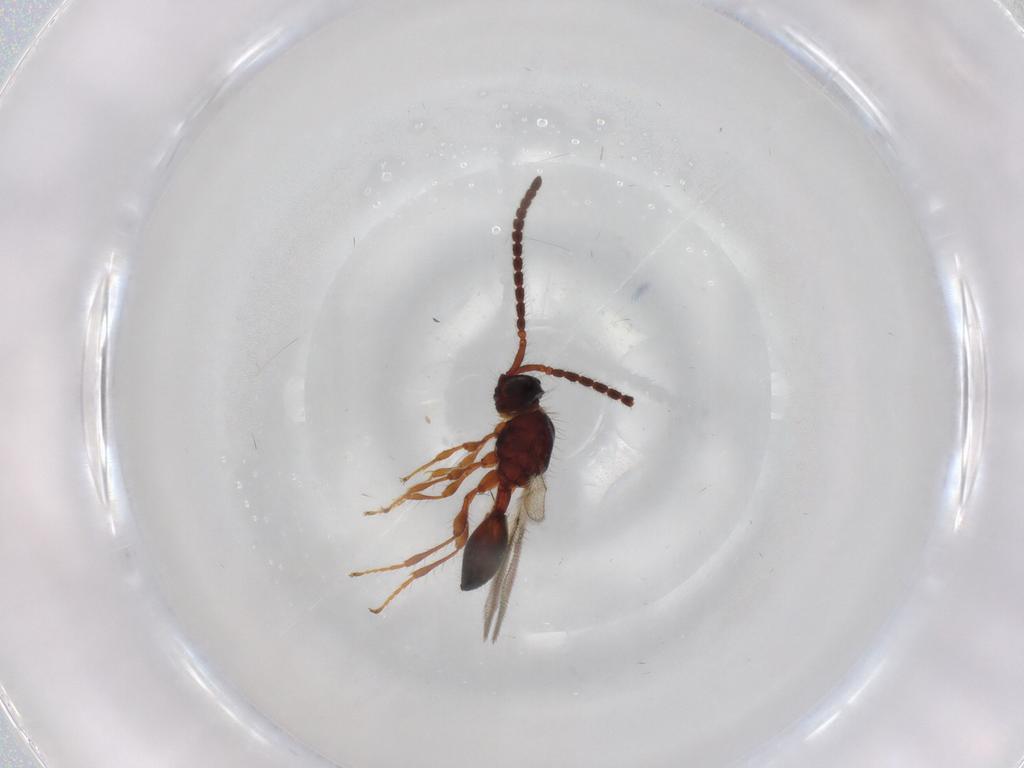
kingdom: Animalia
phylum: Arthropoda
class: Insecta
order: Hymenoptera
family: Diapriidae
